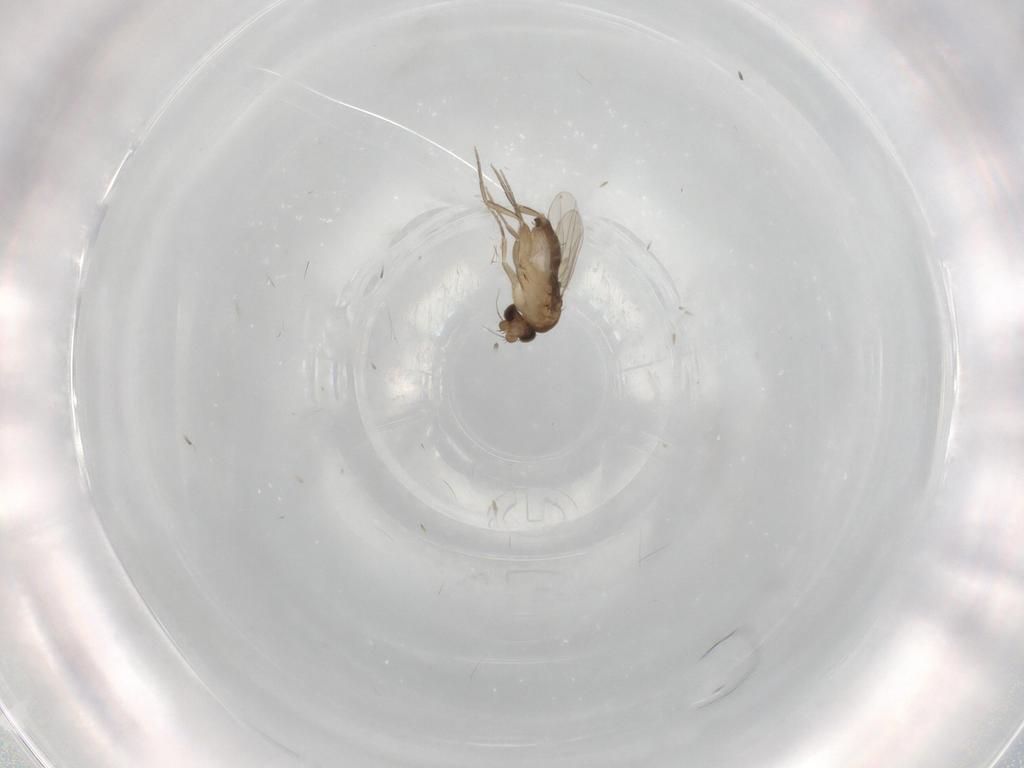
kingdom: Animalia
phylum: Arthropoda
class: Insecta
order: Diptera
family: Phoridae
